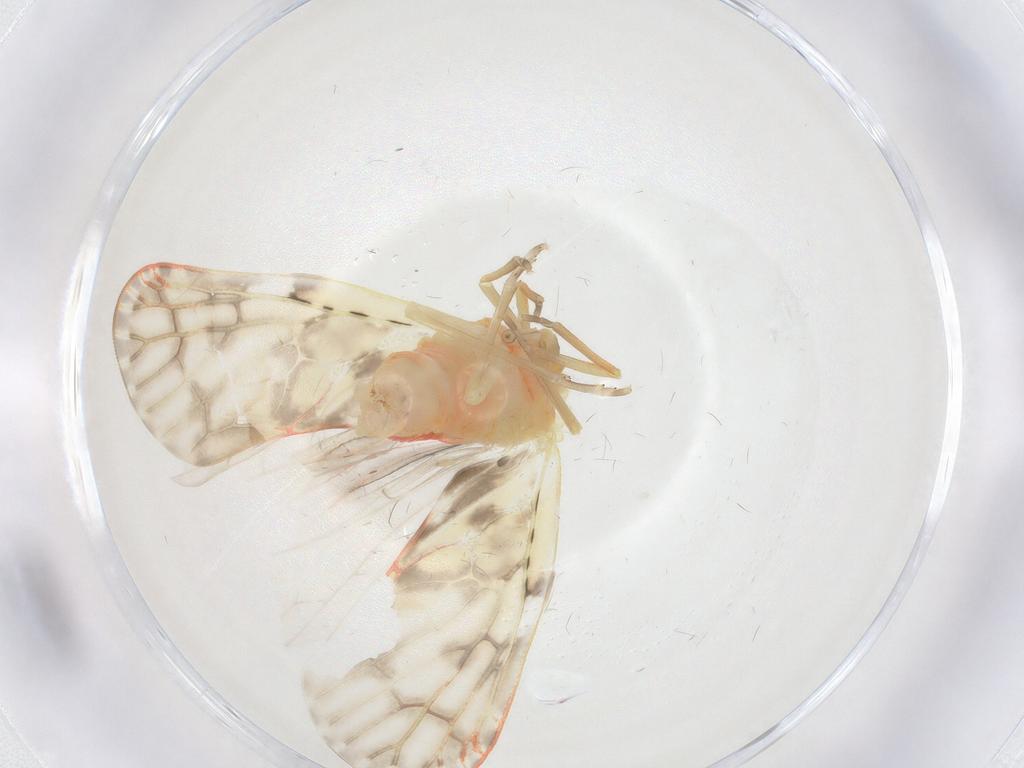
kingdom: Animalia
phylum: Arthropoda
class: Insecta
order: Hemiptera
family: Derbidae
